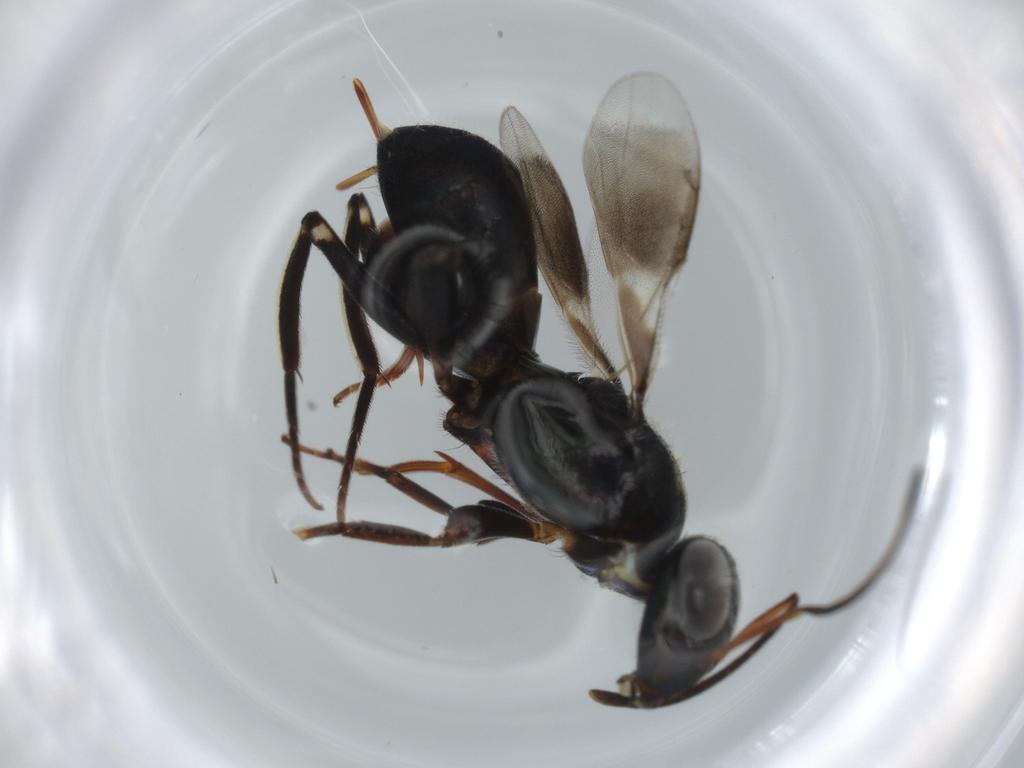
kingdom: Animalia
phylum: Arthropoda
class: Insecta
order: Hymenoptera
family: Eupelmidae
